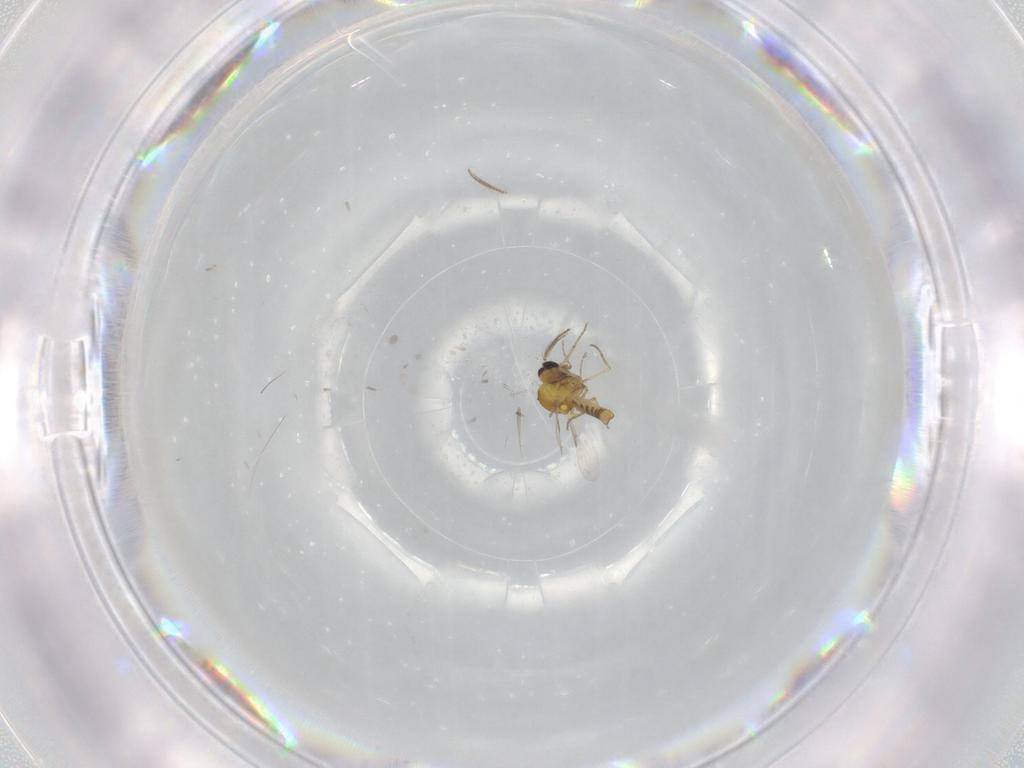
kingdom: Animalia
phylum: Arthropoda
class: Insecta
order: Diptera
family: Ceratopogonidae
